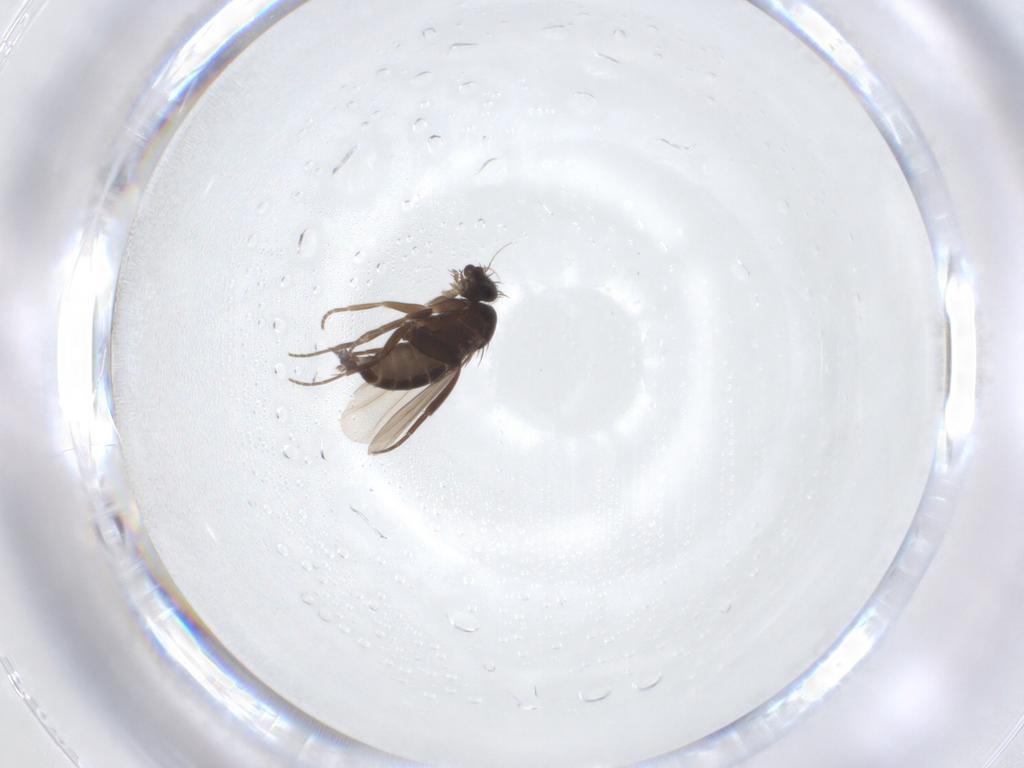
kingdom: Animalia
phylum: Arthropoda
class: Insecta
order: Diptera
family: Phoridae
